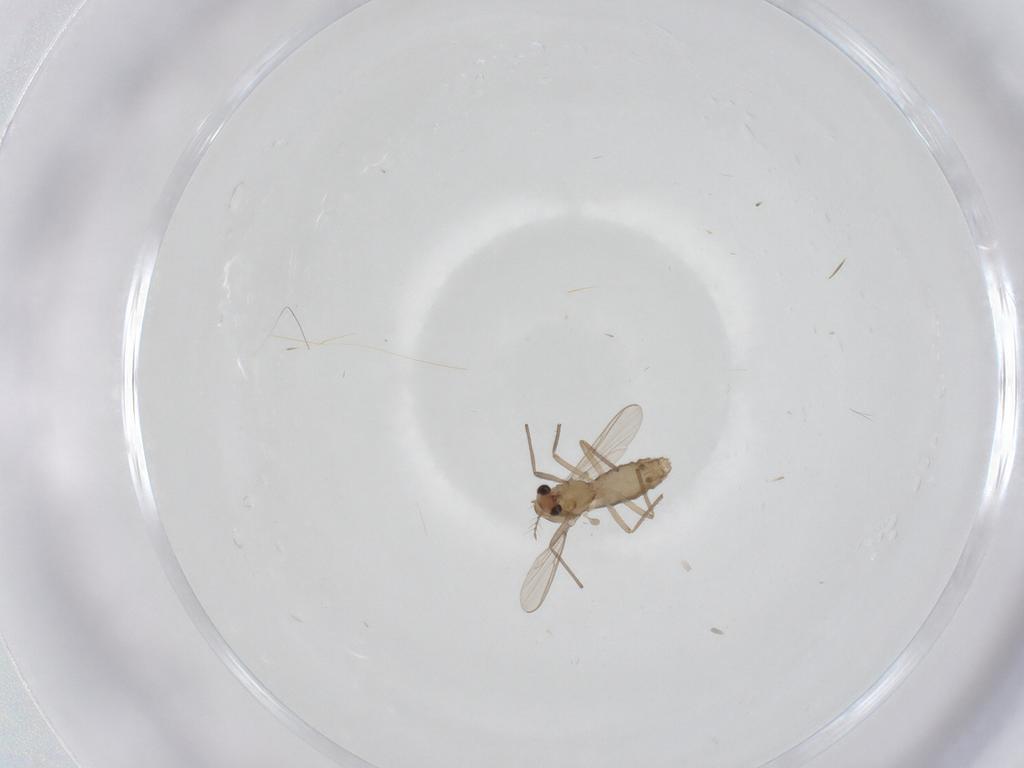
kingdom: Animalia
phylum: Arthropoda
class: Insecta
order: Diptera
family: Chironomidae
